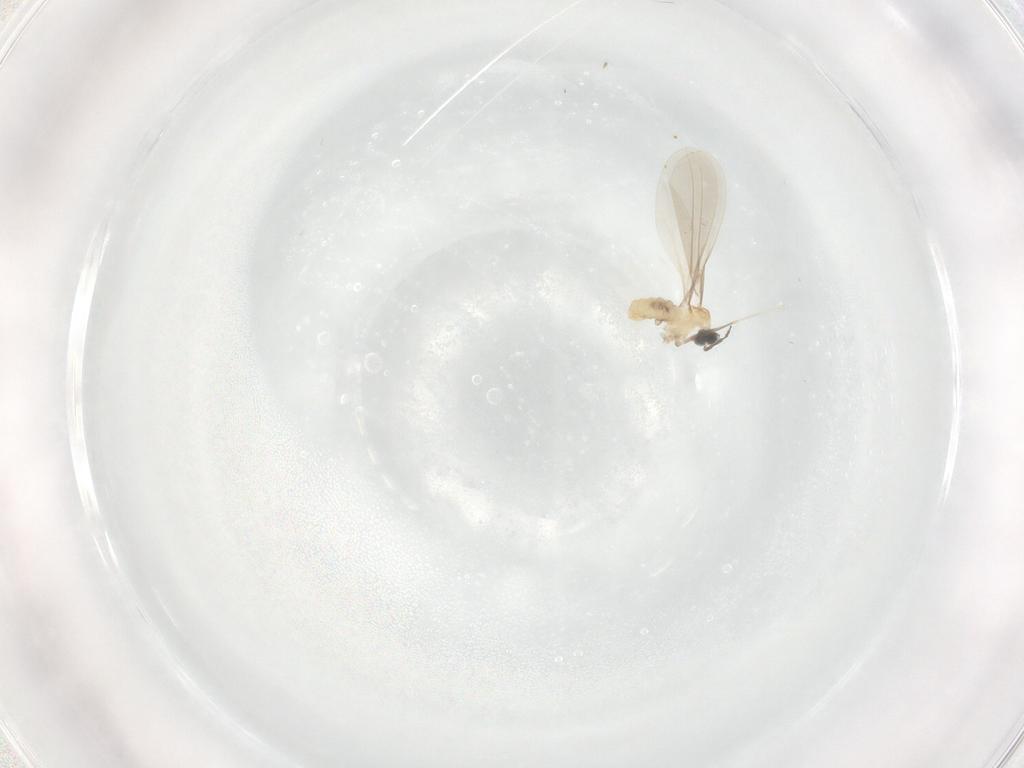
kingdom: Animalia
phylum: Arthropoda
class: Insecta
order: Diptera
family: Cecidomyiidae
